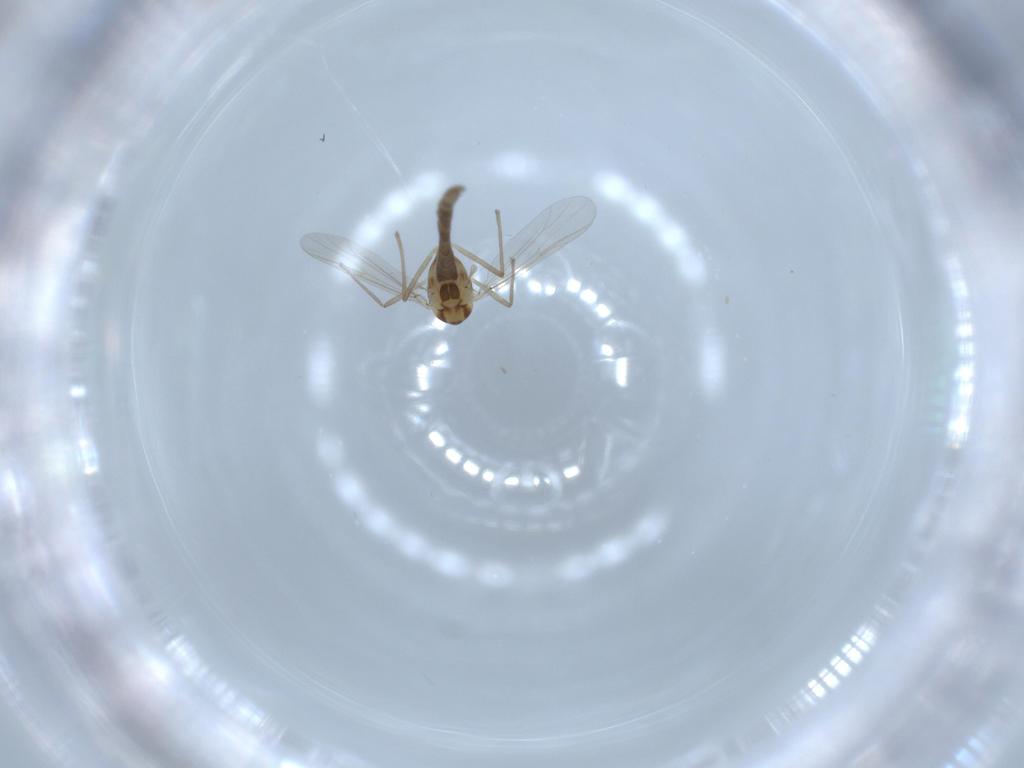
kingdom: Animalia
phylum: Arthropoda
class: Insecta
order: Diptera
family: Chironomidae
